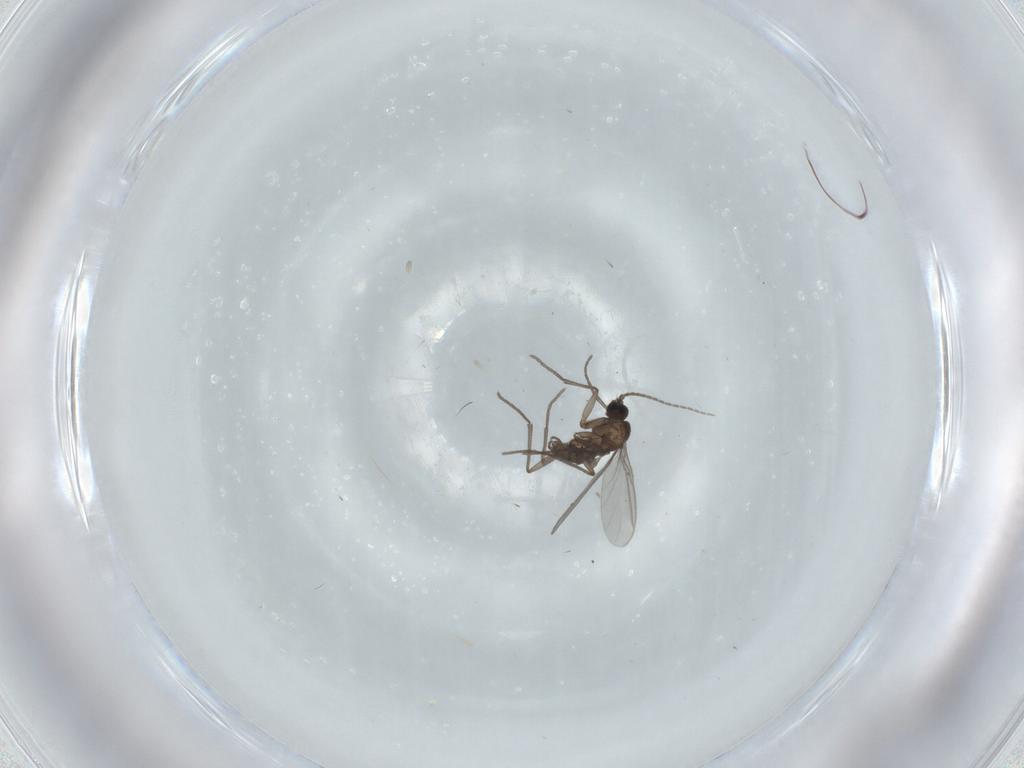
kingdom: Animalia
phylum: Arthropoda
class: Insecta
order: Diptera
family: Sciaridae
